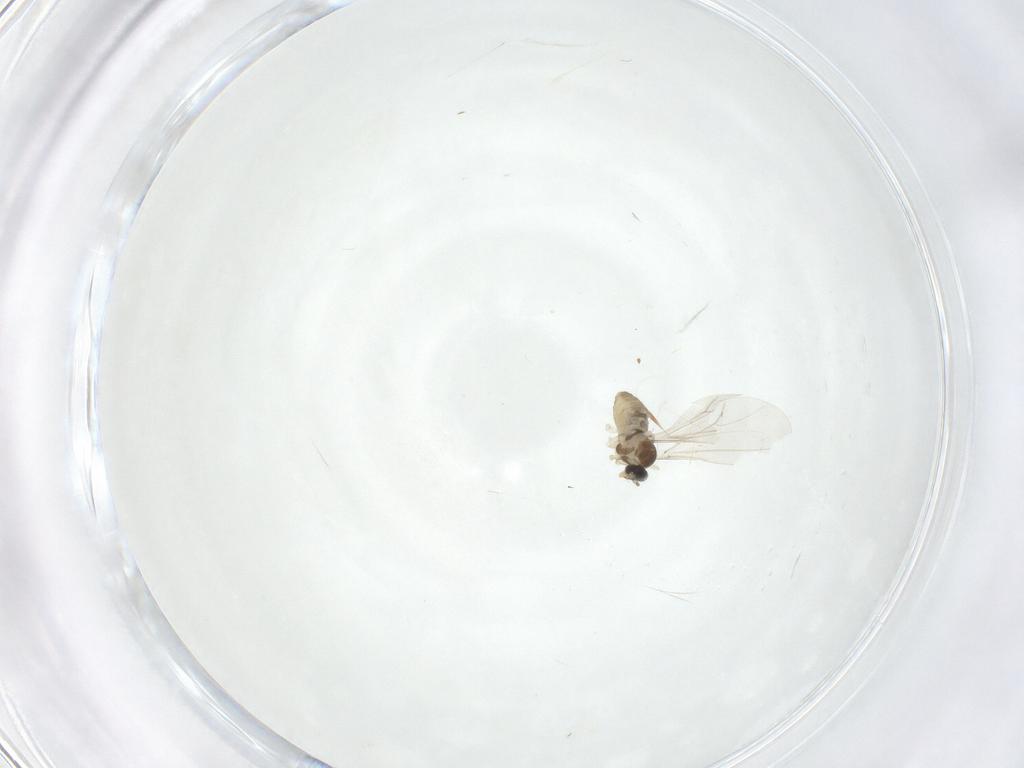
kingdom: Animalia
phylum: Arthropoda
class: Insecta
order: Diptera
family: Cecidomyiidae
